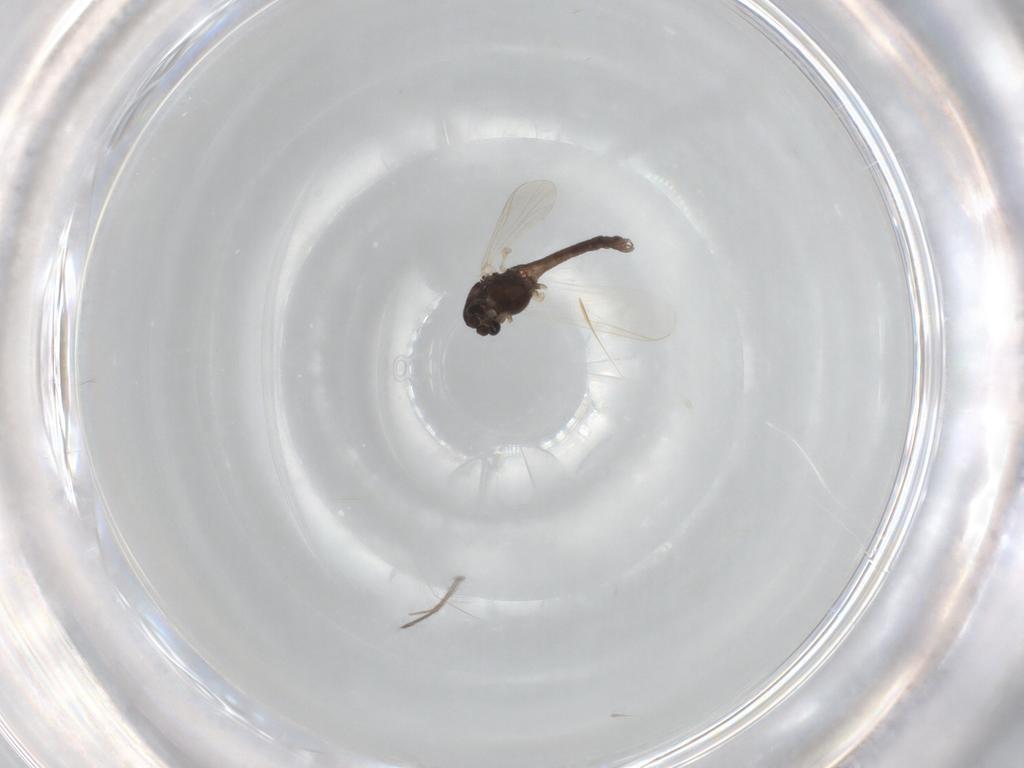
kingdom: Animalia
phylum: Arthropoda
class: Insecta
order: Diptera
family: Chironomidae
